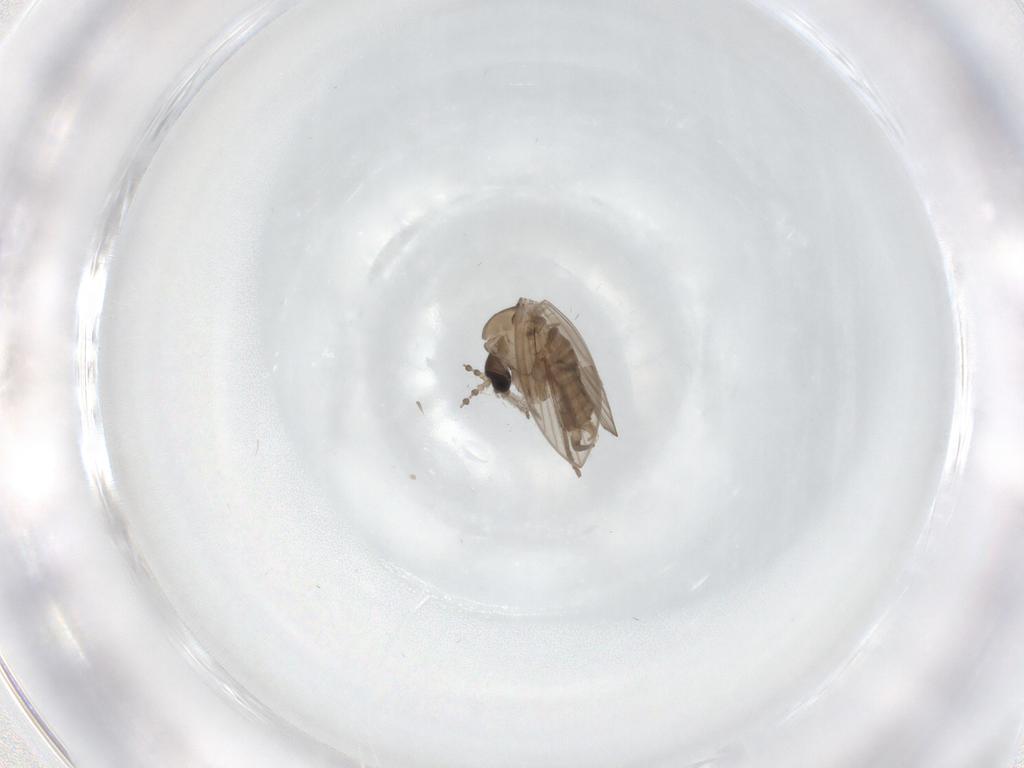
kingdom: Animalia
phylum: Arthropoda
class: Insecta
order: Diptera
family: Psychodidae
